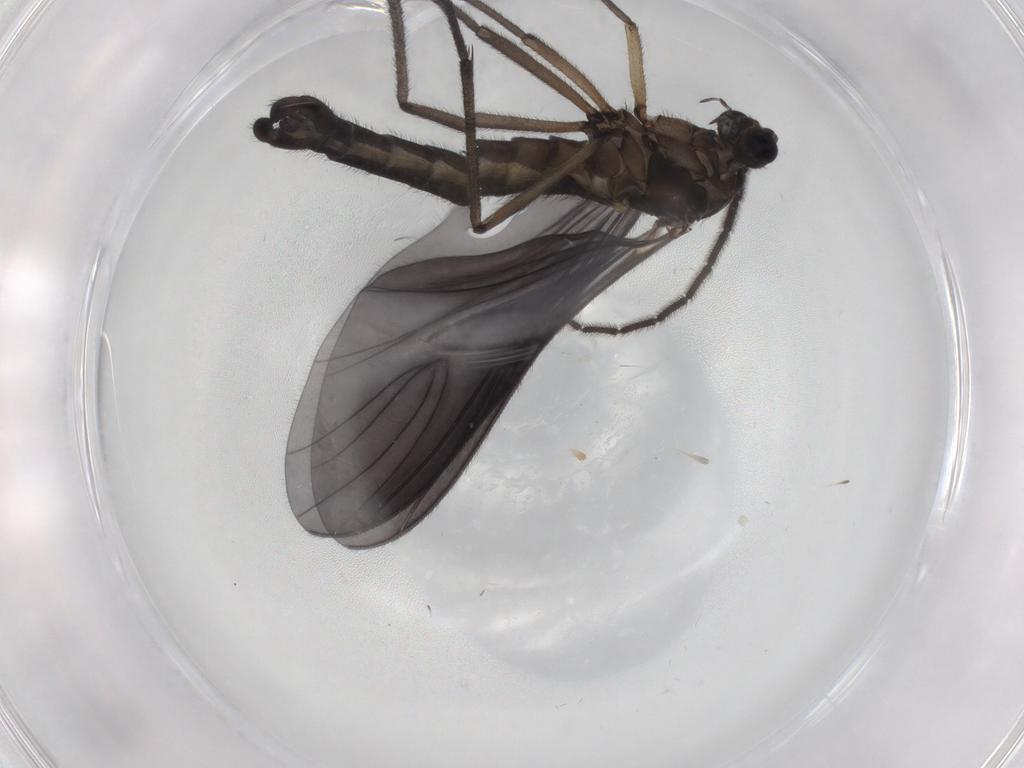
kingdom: Animalia
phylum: Arthropoda
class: Insecta
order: Diptera
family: Sciaridae
